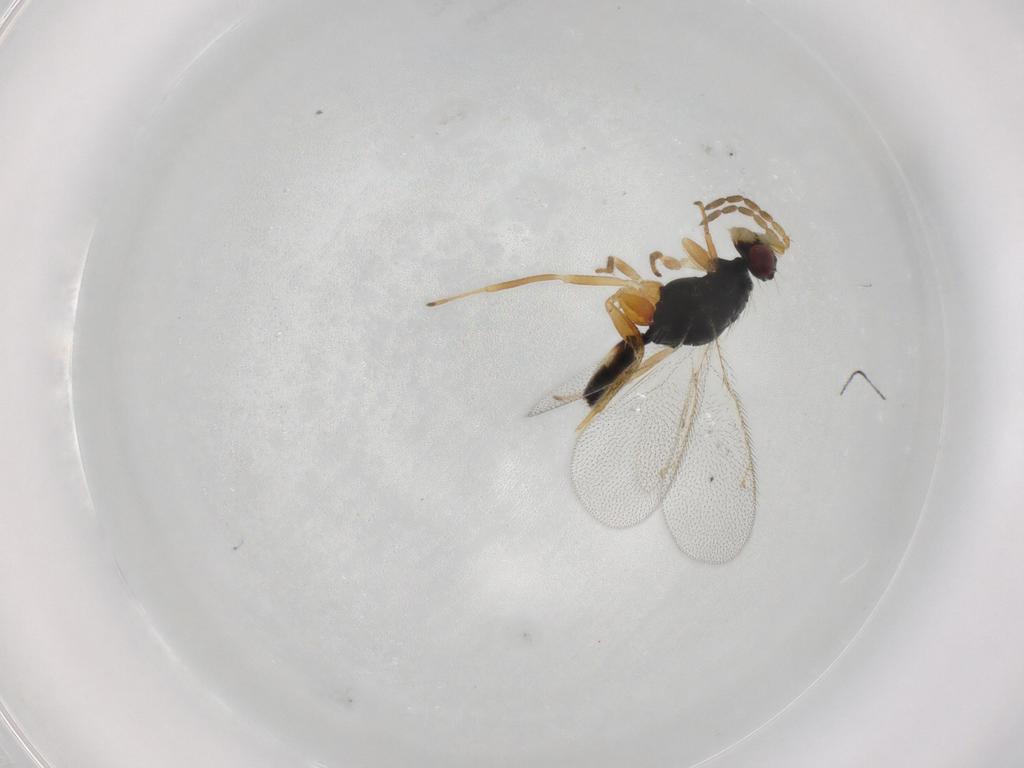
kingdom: Animalia
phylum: Arthropoda
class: Insecta
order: Hymenoptera
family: Eulophidae
